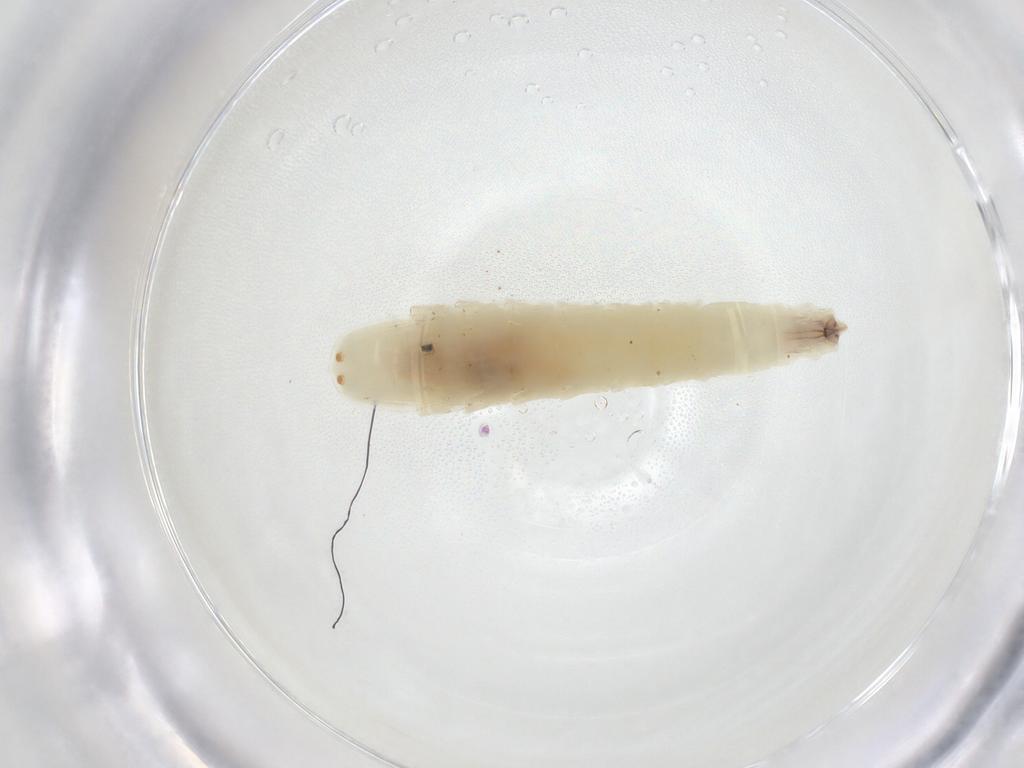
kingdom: Animalia
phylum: Arthropoda
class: Insecta
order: Diptera
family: Empididae
